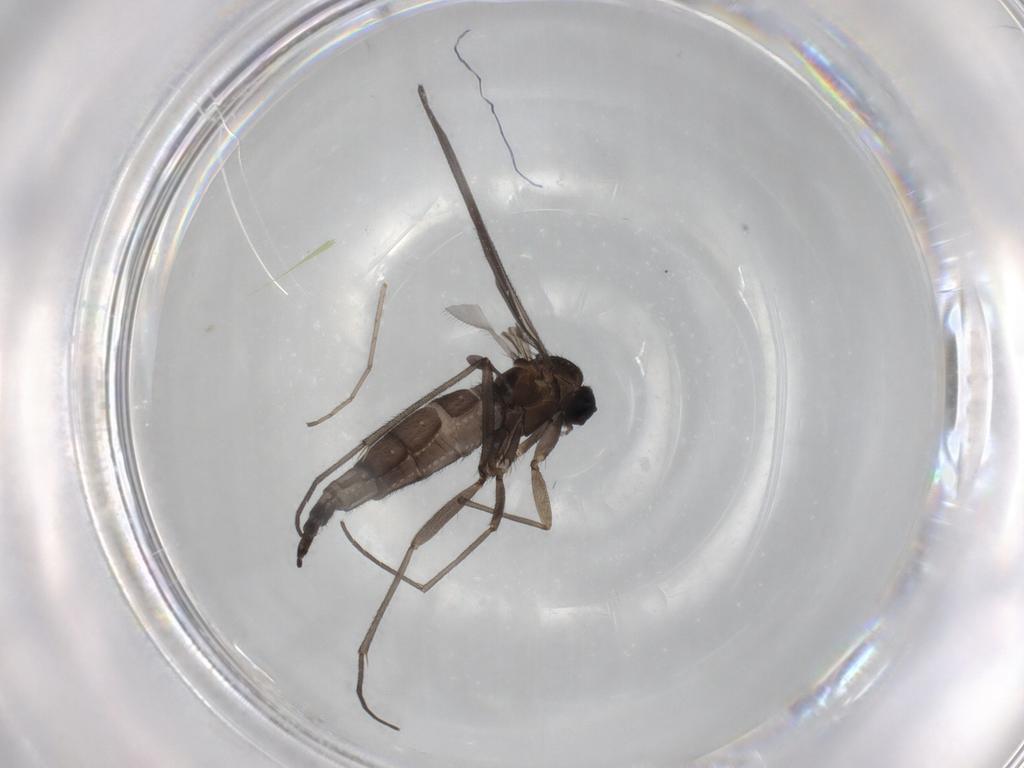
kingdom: Animalia
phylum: Arthropoda
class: Insecta
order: Diptera
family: Sciaridae
